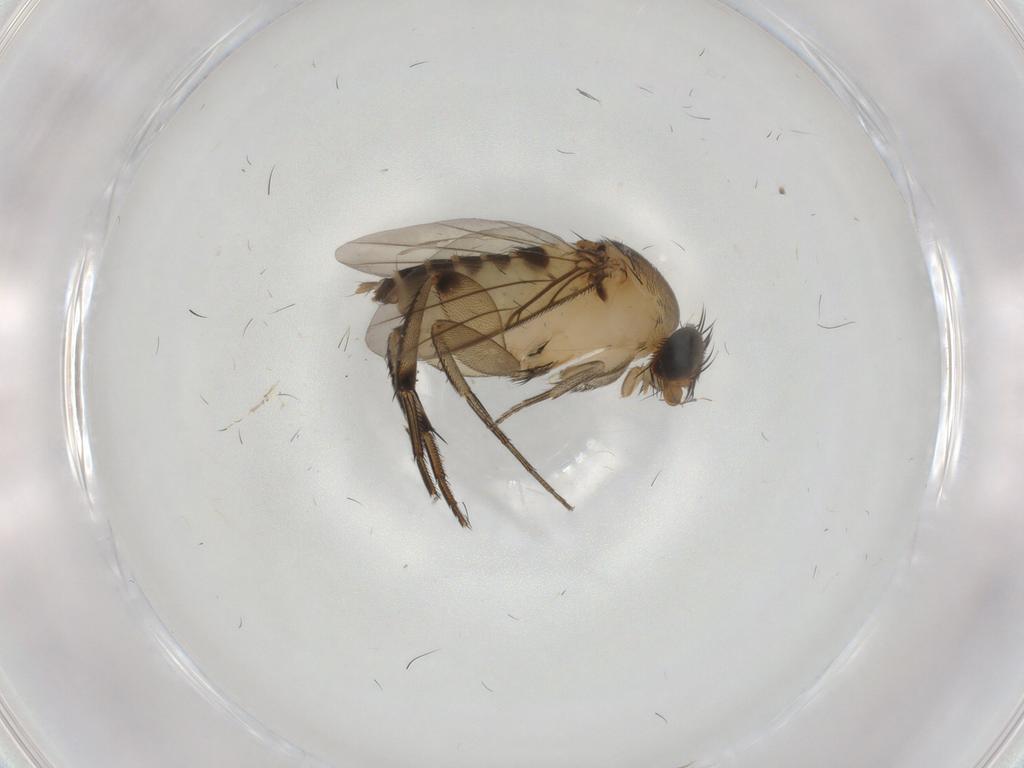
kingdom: Animalia
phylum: Arthropoda
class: Insecta
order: Diptera
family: Phoridae
